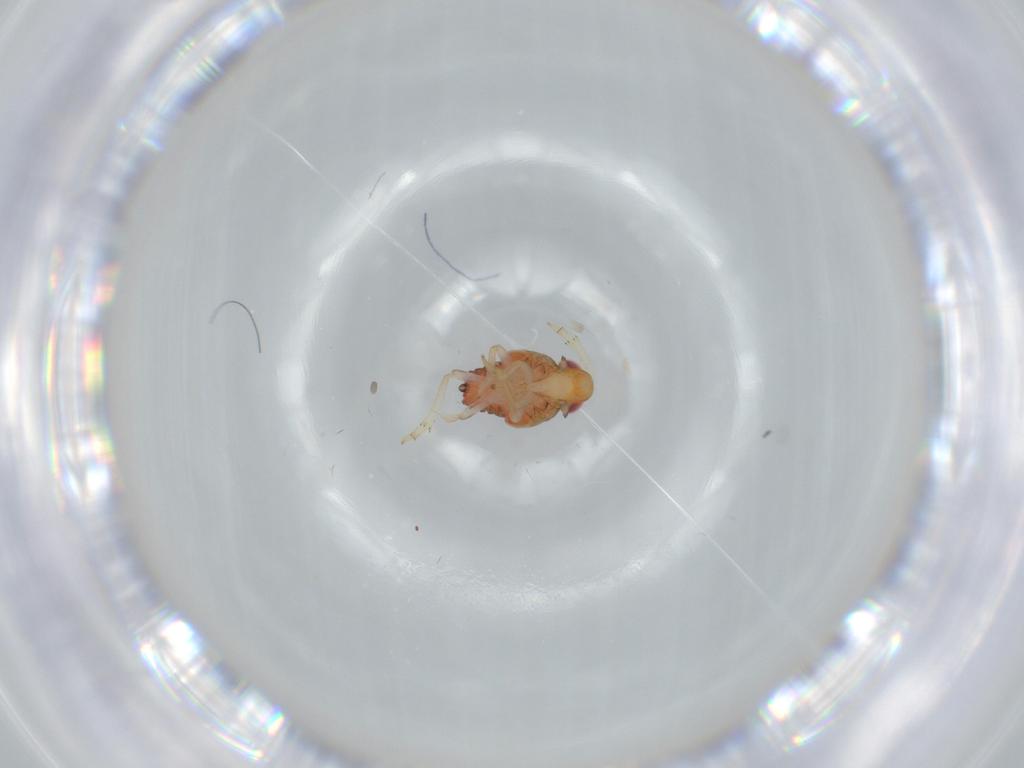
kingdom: Animalia
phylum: Arthropoda
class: Insecta
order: Hemiptera
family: Issidae
